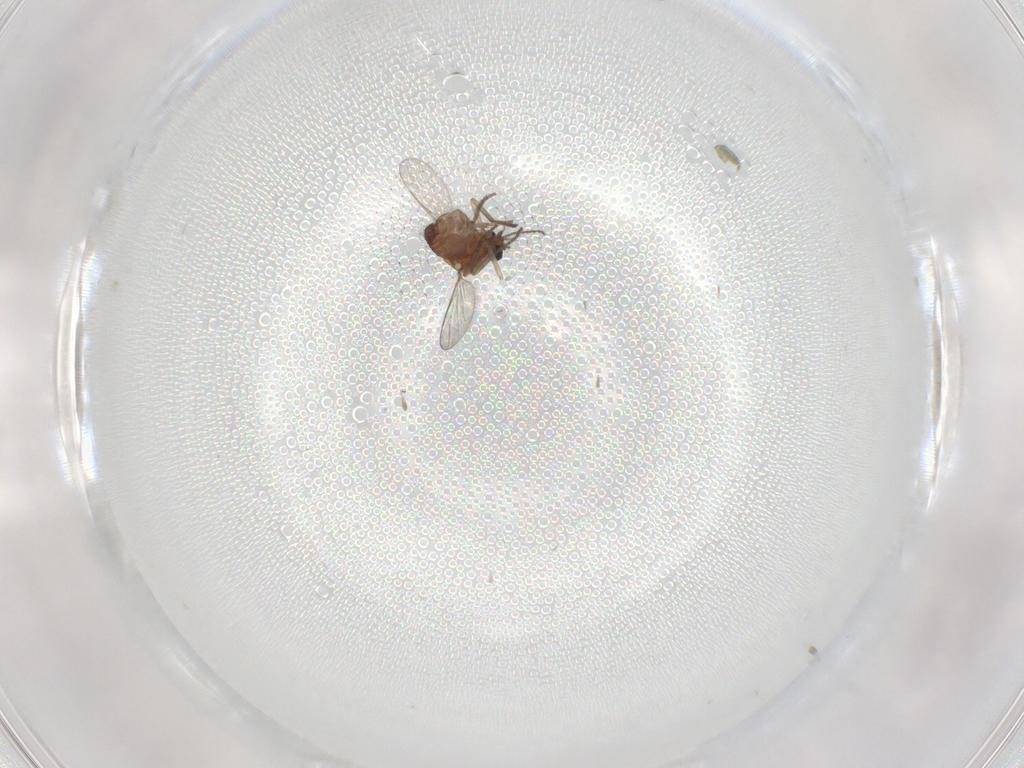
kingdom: Animalia
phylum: Arthropoda
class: Insecta
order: Diptera
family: Ceratopogonidae
